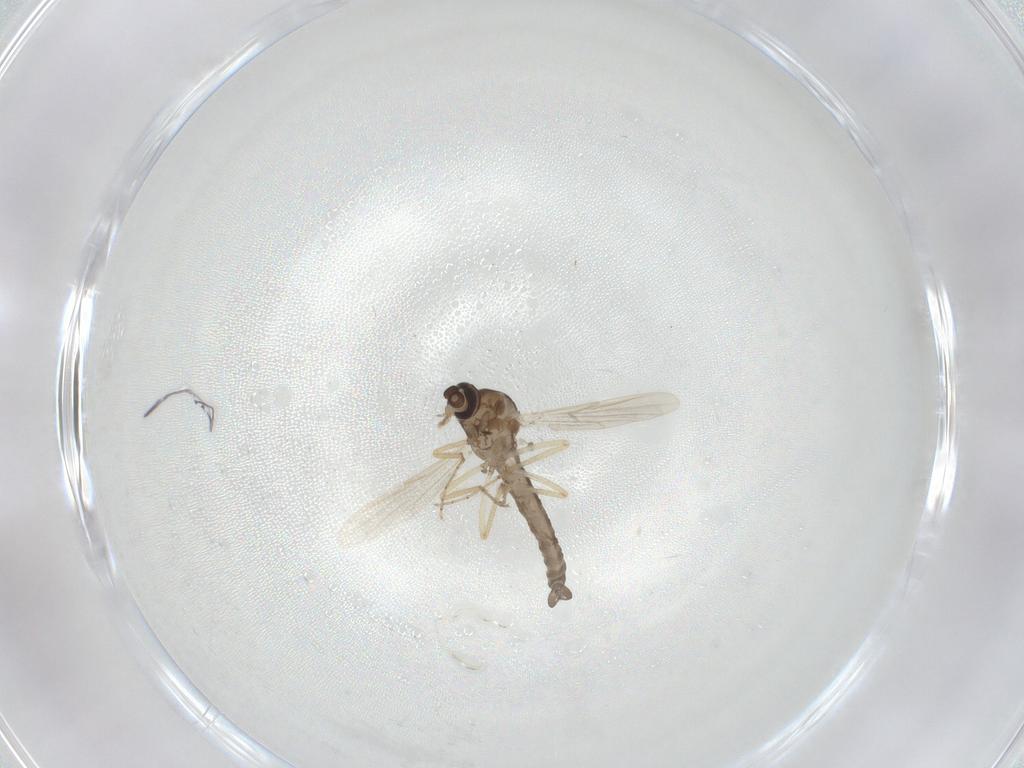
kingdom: Animalia
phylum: Arthropoda
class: Insecta
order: Diptera
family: Ceratopogonidae
